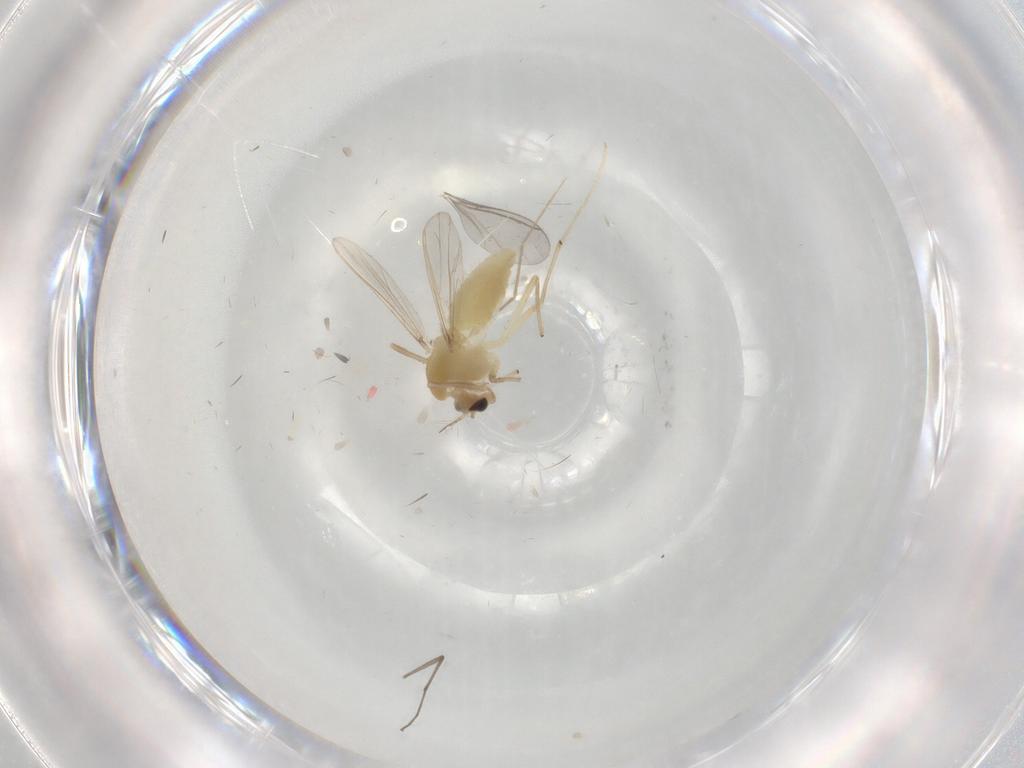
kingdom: Animalia
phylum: Arthropoda
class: Insecta
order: Diptera
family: Chironomidae
